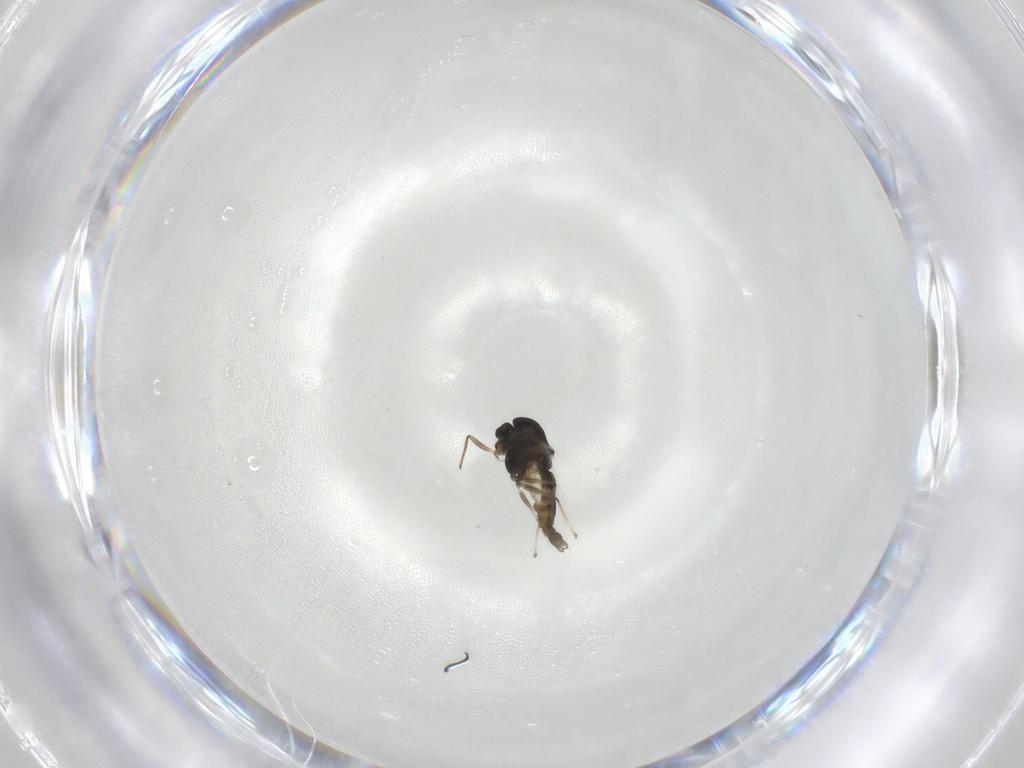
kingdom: Animalia
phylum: Arthropoda
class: Insecta
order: Diptera
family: Chironomidae
